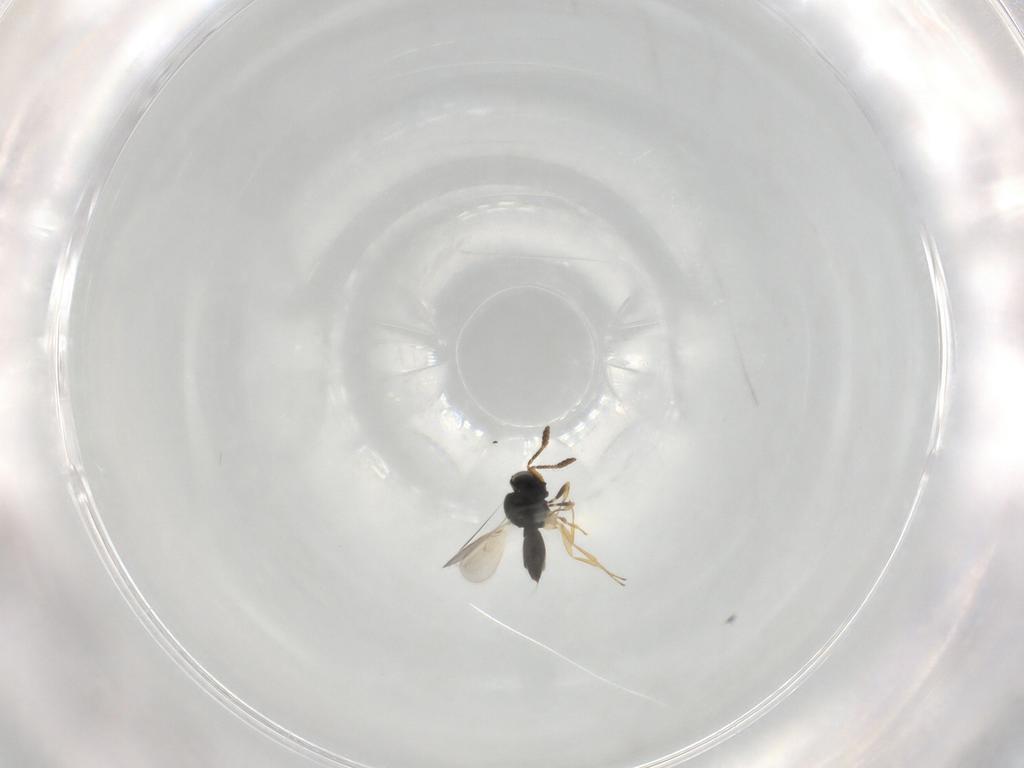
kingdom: Animalia
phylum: Arthropoda
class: Insecta
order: Hymenoptera
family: Scelionidae
